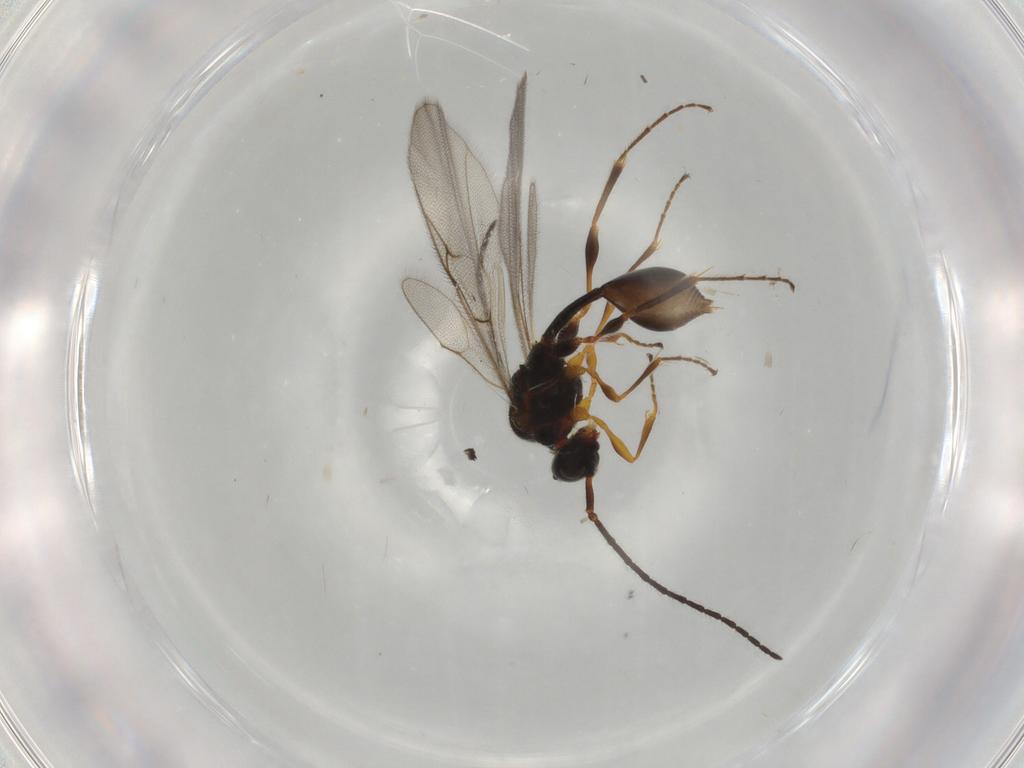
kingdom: Animalia
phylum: Arthropoda
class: Insecta
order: Hymenoptera
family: Diapriidae
